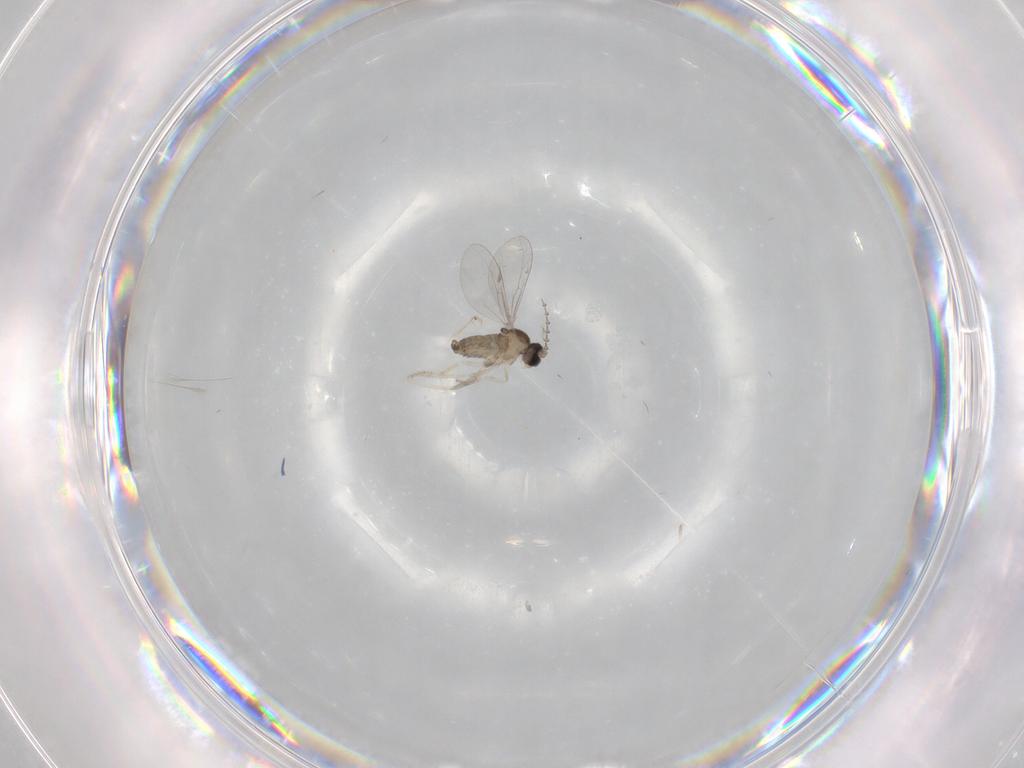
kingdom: Animalia
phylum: Arthropoda
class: Insecta
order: Diptera
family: Cecidomyiidae
